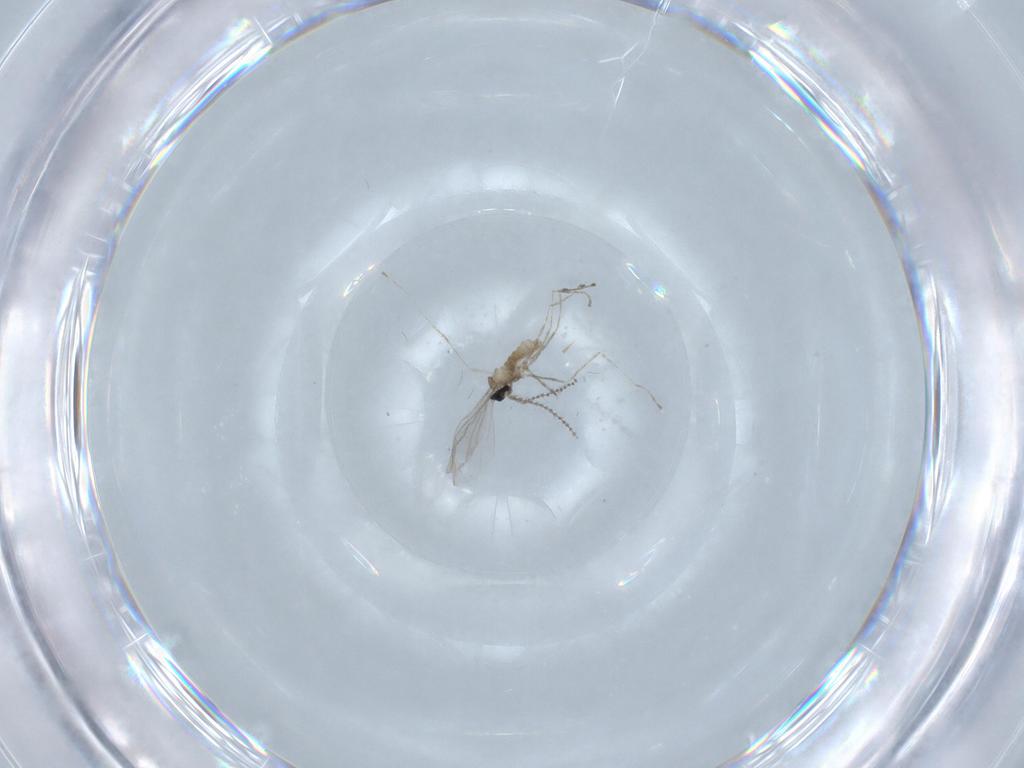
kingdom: Animalia
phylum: Arthropoda
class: Insecta
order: Diptera
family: Cecidomyiidae
